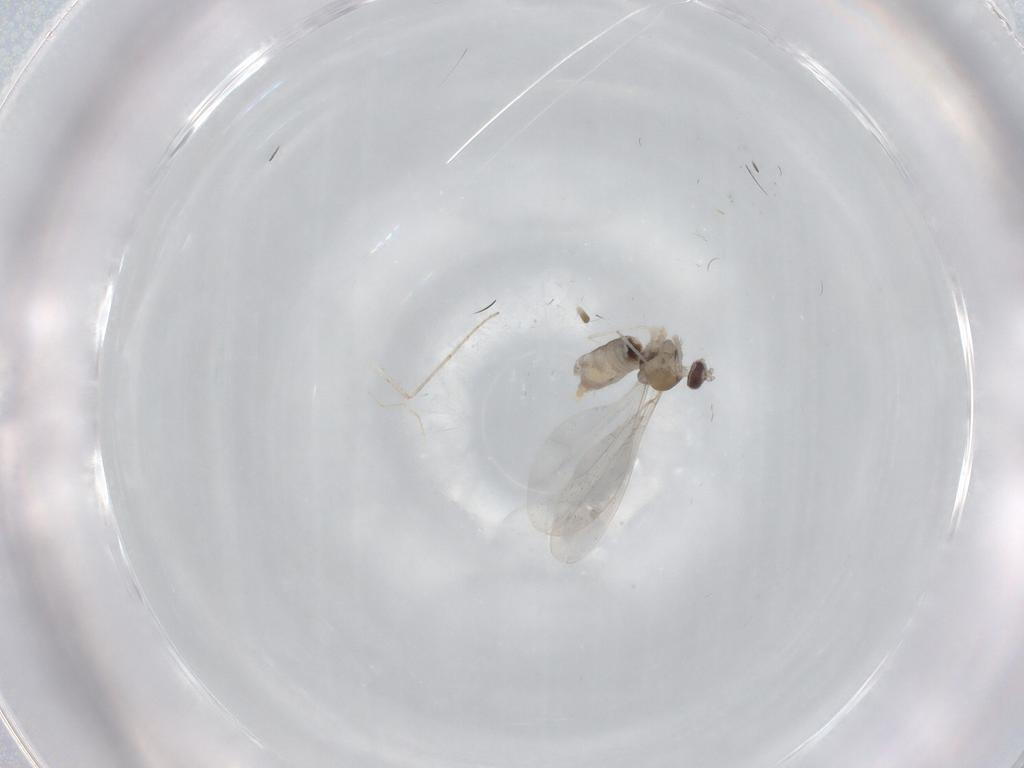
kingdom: Animalia
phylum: Arthropoda
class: Insecta
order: Diptera
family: Cecidomyiidae
